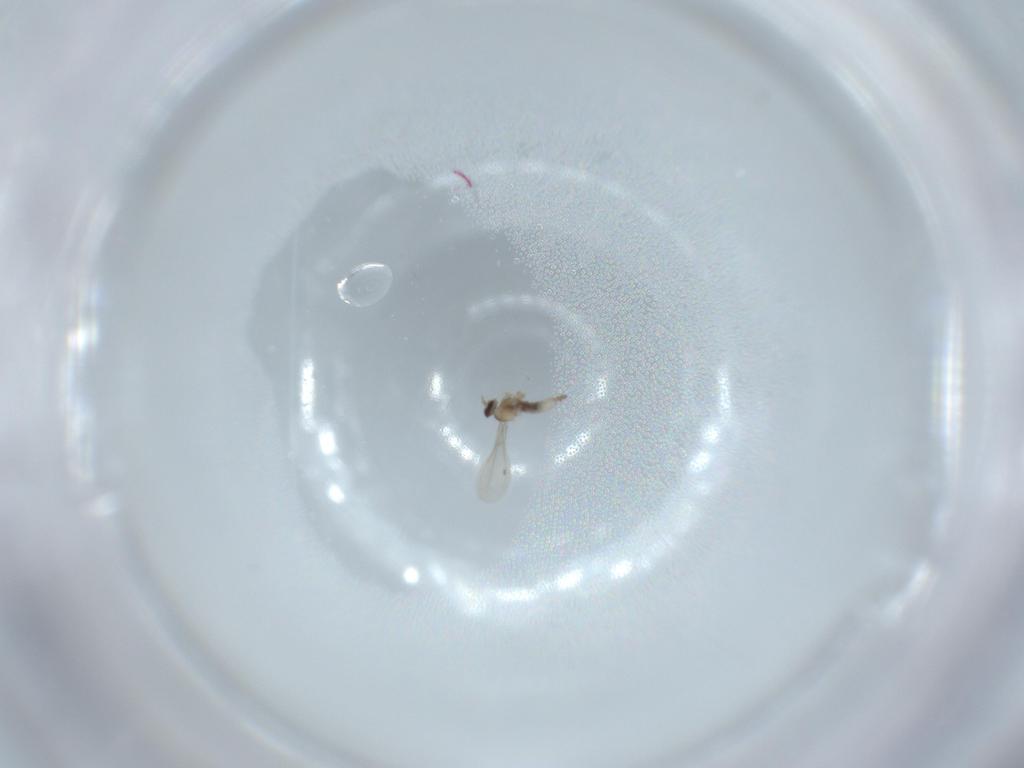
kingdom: Animalia
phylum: Arthropoda
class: Insecta
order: Diptera
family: Cecidomyiidae
